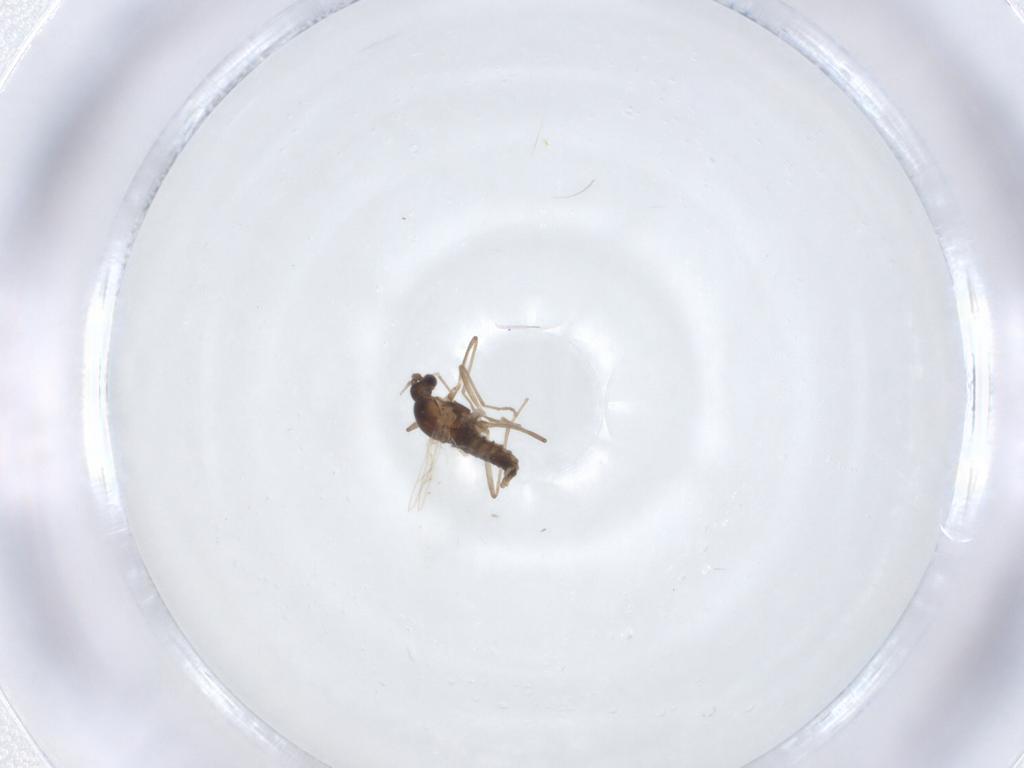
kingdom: Animalia
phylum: Arthropoda
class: Insecta
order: Diptera
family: Cecidomyiidae
